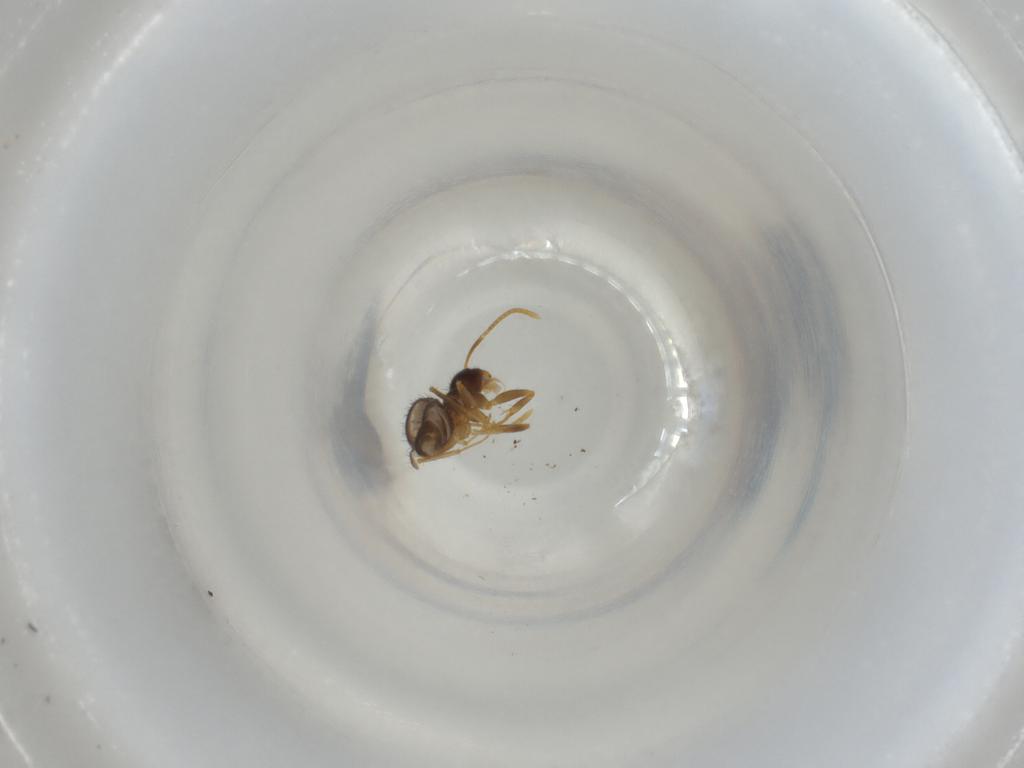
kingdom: Animalia
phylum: Arthropoda
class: Insecta
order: Hymenoptera
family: Formicidae
